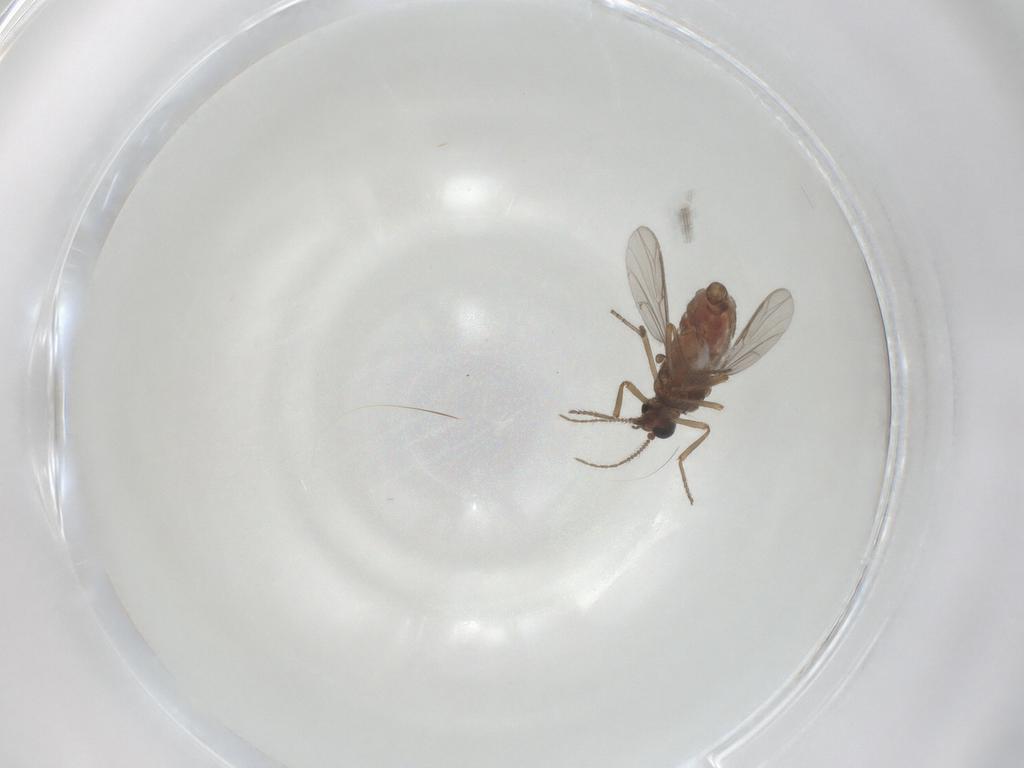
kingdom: Animalia
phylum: Arthropoda
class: Insecta
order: Diptera
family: Ceratopogonidae
